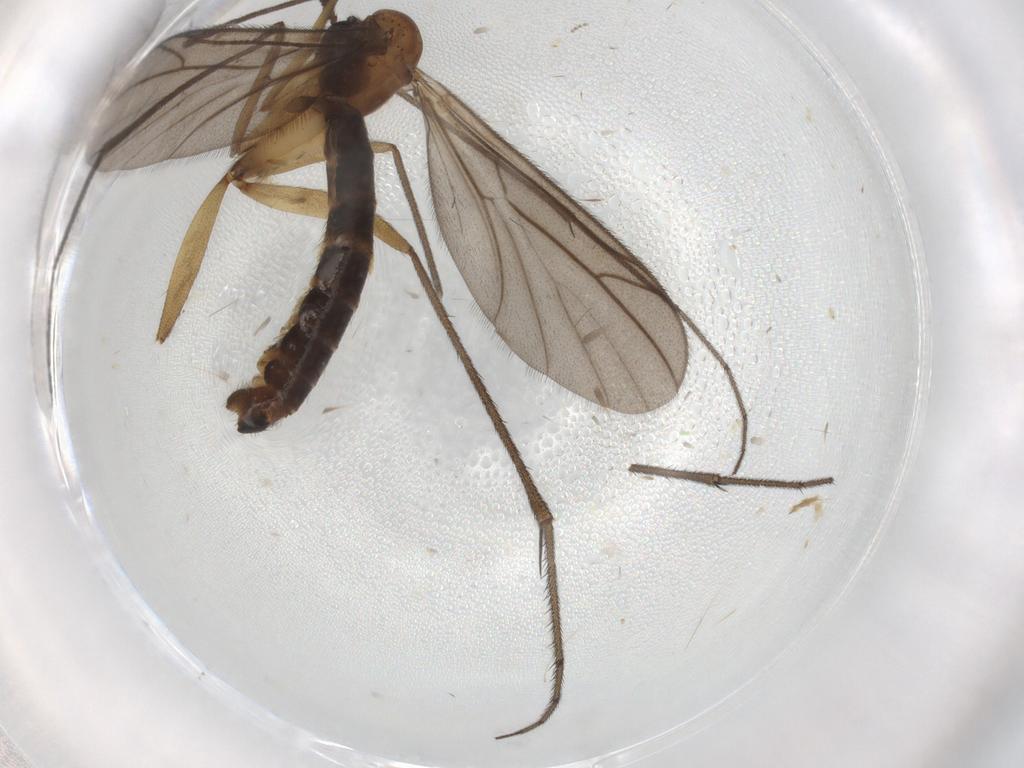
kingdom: Animalia
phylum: Arthropoda
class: Insecta
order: Diptera
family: Ditomyiidae
